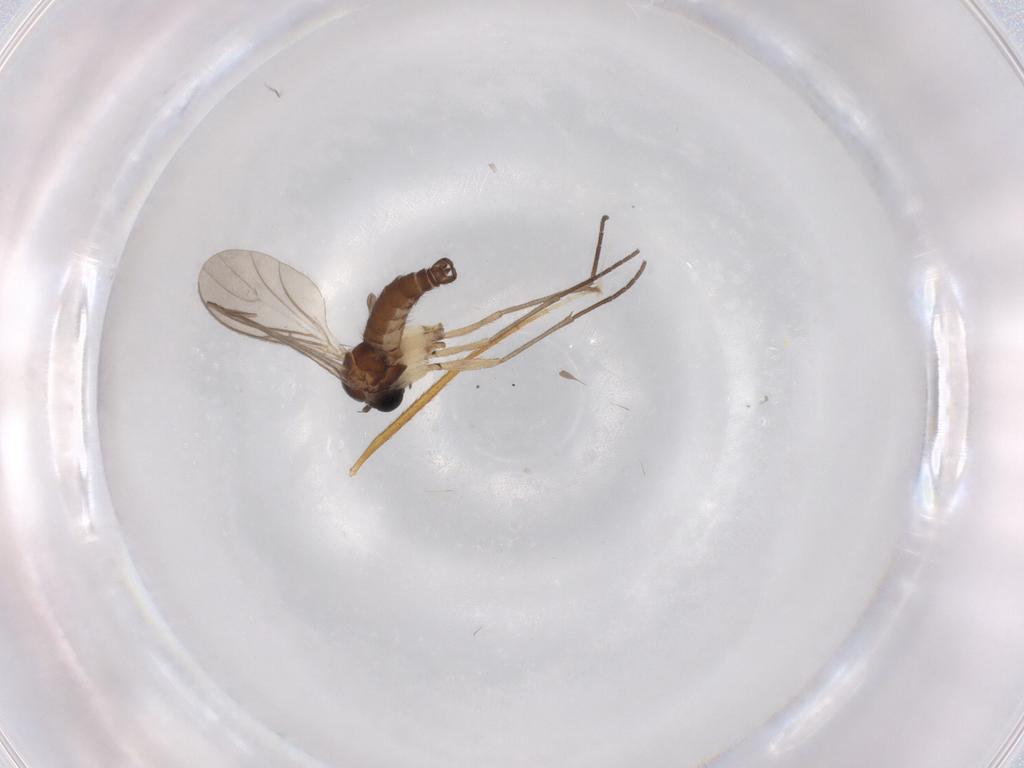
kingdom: Animalia
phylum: Arthropoda
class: Insecta
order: Diptera
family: Sciaridae
